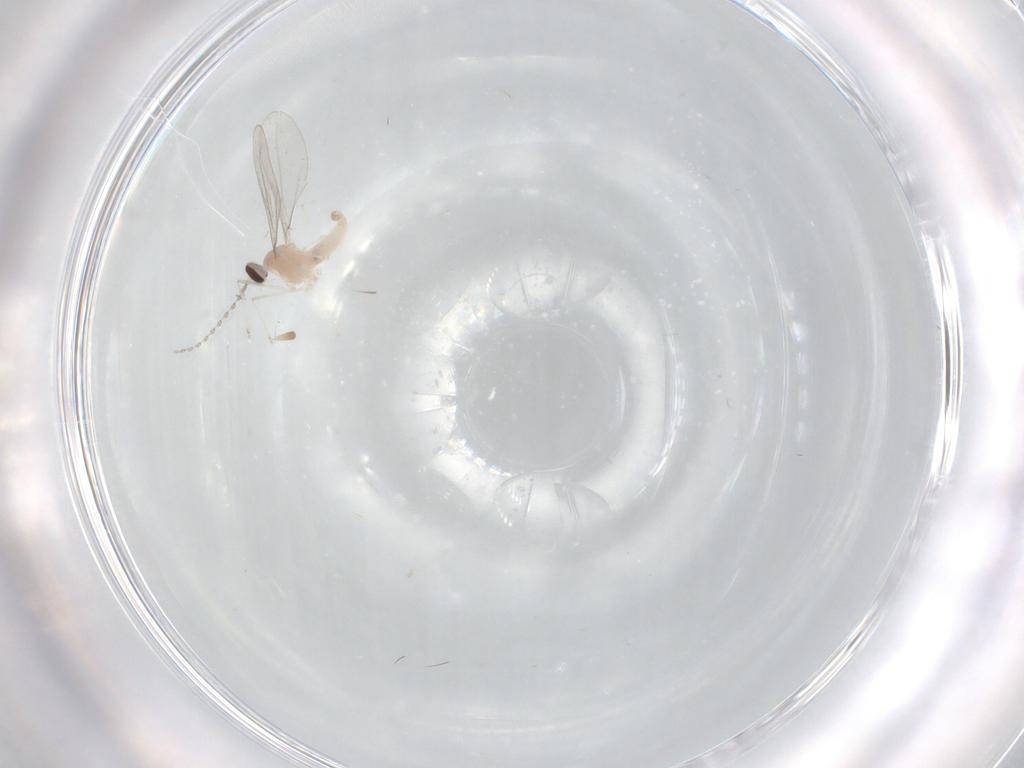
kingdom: Animalia
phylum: Arthropoda
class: Insecta
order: Diptera
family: Cecidomyiidae
